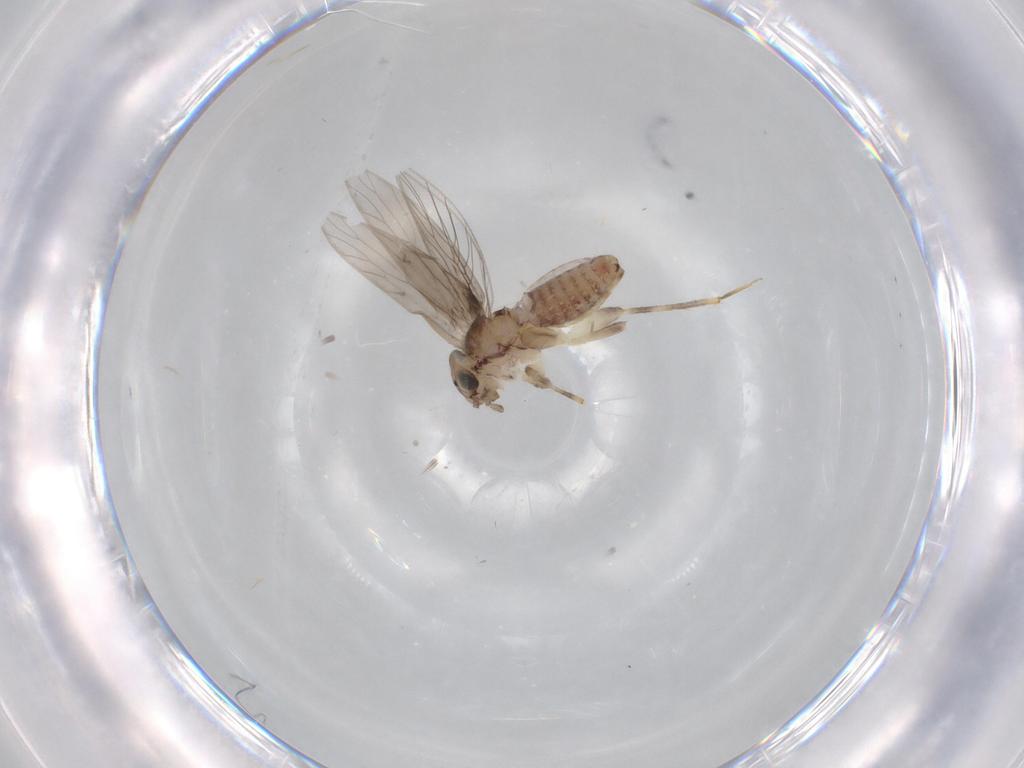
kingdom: Animalia
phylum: Arthropoda
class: Insecta
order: Psocodea
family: Lepidopsocidae
